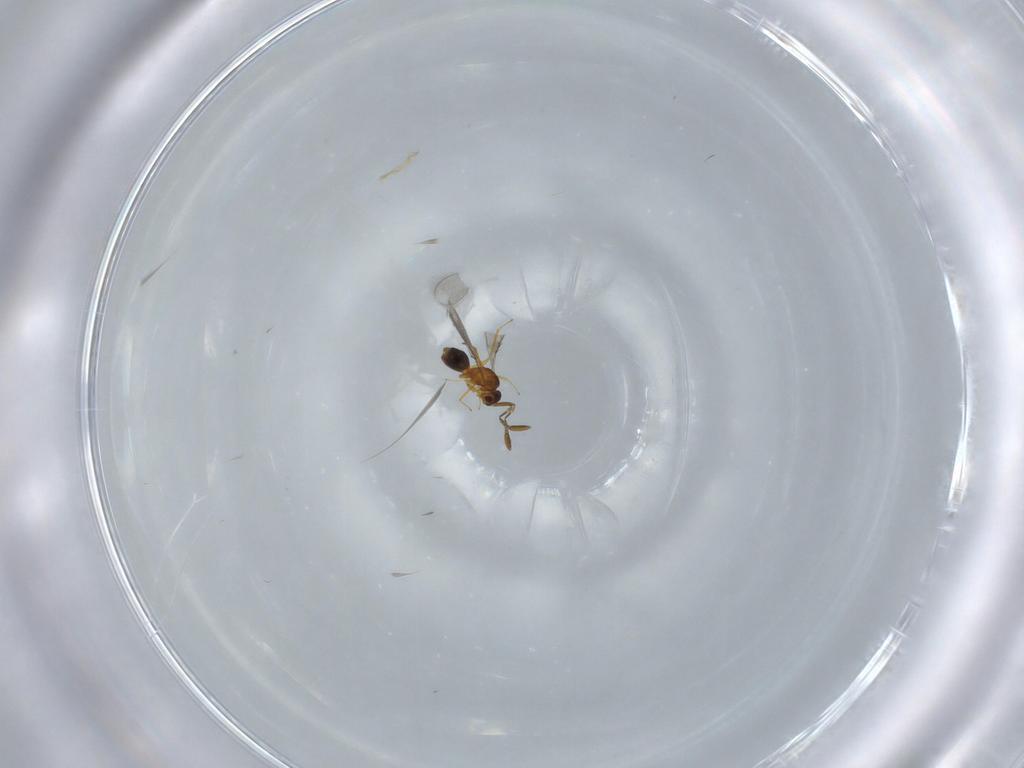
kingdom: Animalia
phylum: Arthropoda
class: Insecta
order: Hymenoptera
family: Mymaridae
